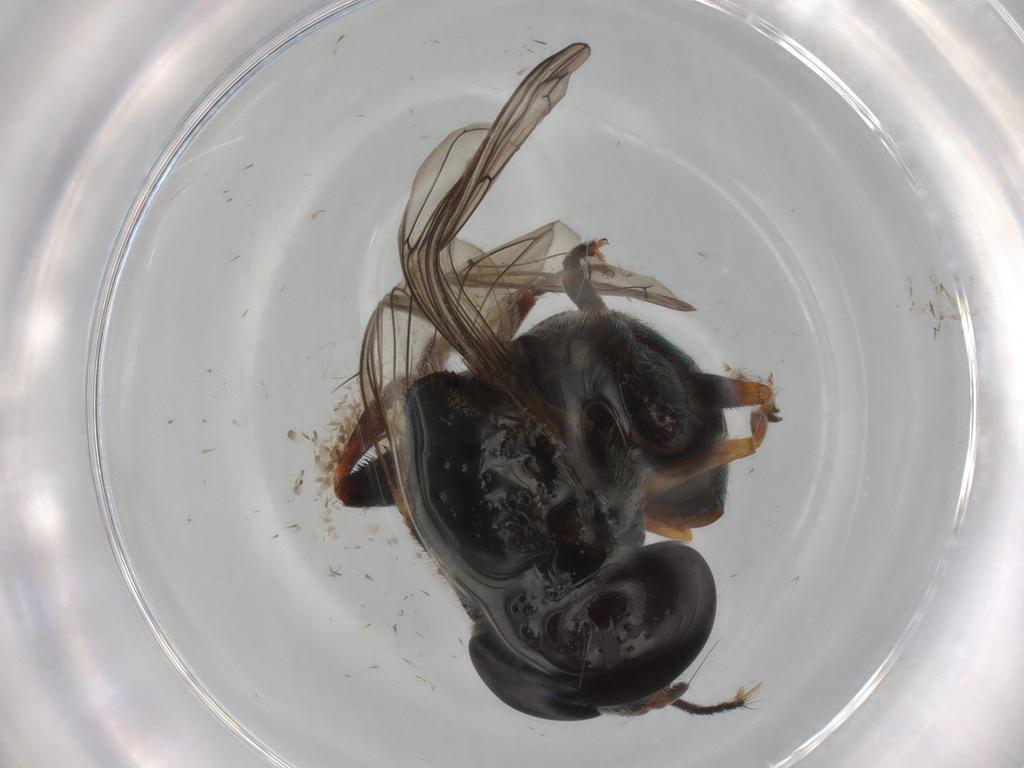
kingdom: Animalia
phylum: Arthropoda
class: Insecta
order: Diptera
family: Cecidomyiidae
